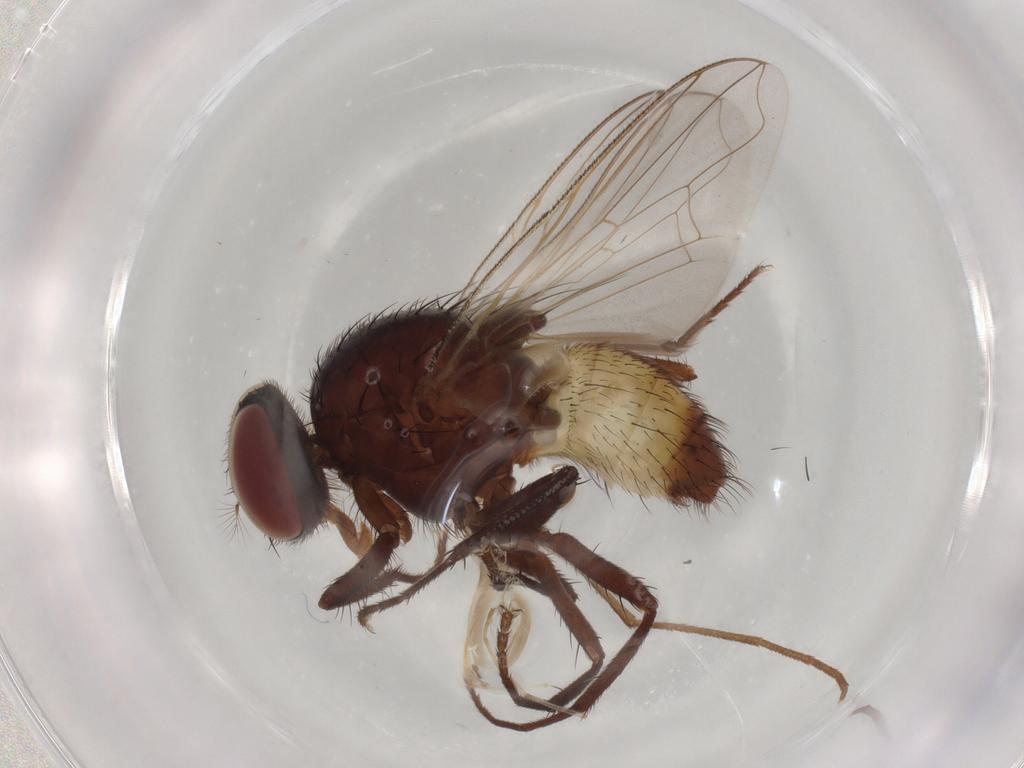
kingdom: Animalia
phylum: Arthropoda
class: Insecta
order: Diptera
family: Muscidae
